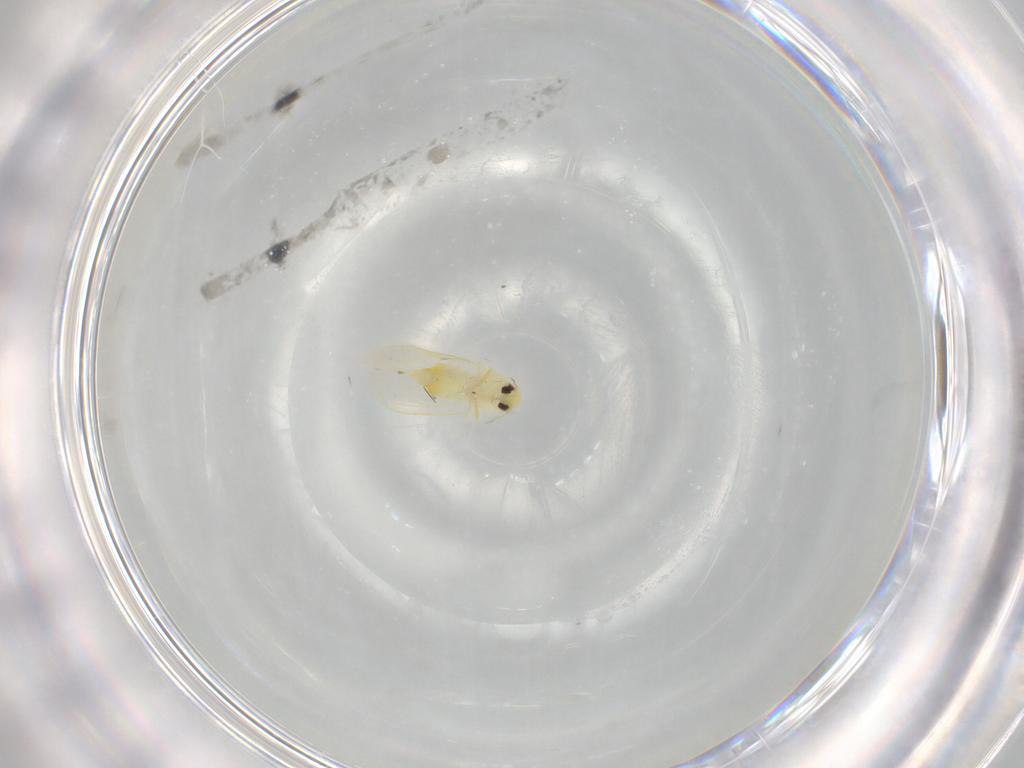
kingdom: Animalia
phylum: Arthropoda
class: Insecta
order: Hemiptera
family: Aleyrodidae
